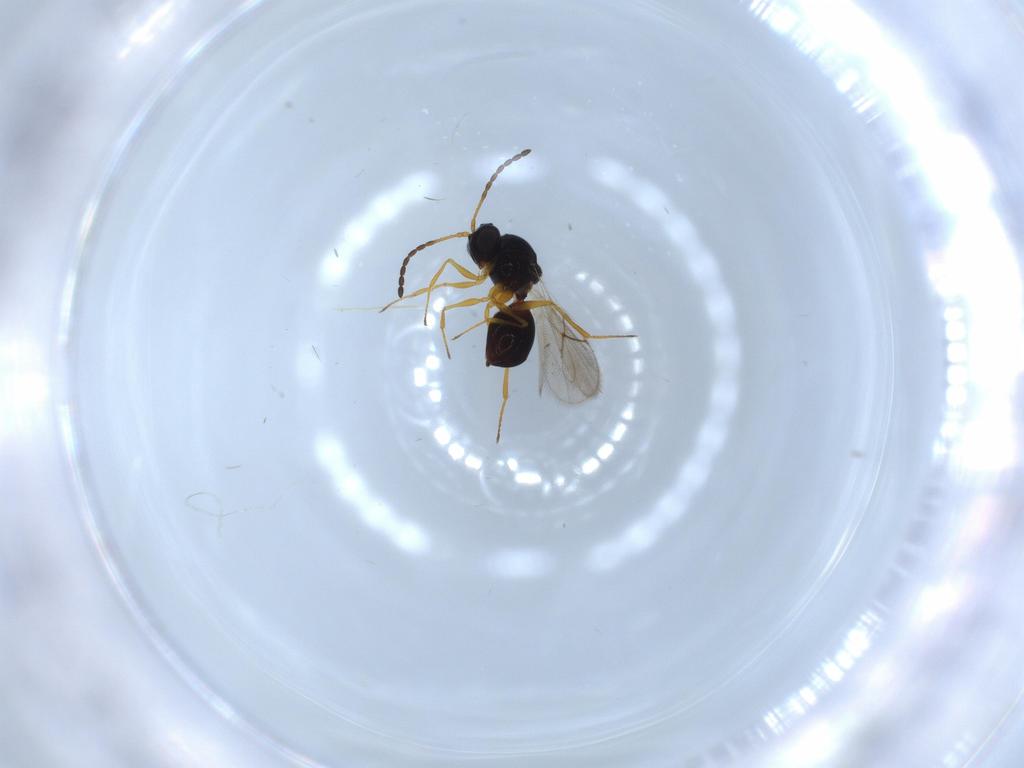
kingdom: Animalia
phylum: Arthropoda
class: Insecta
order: Hymenoptera
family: Figitidae
